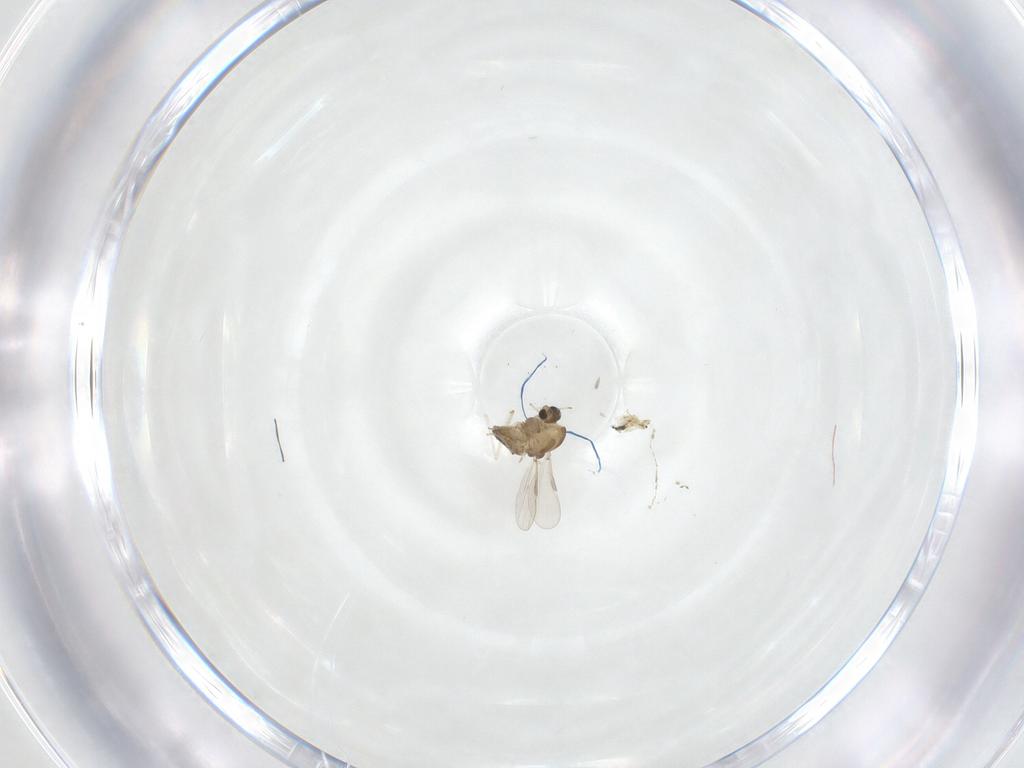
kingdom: Animalia
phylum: Arthropoda
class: Insecta
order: Diptera
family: Chironomidae
